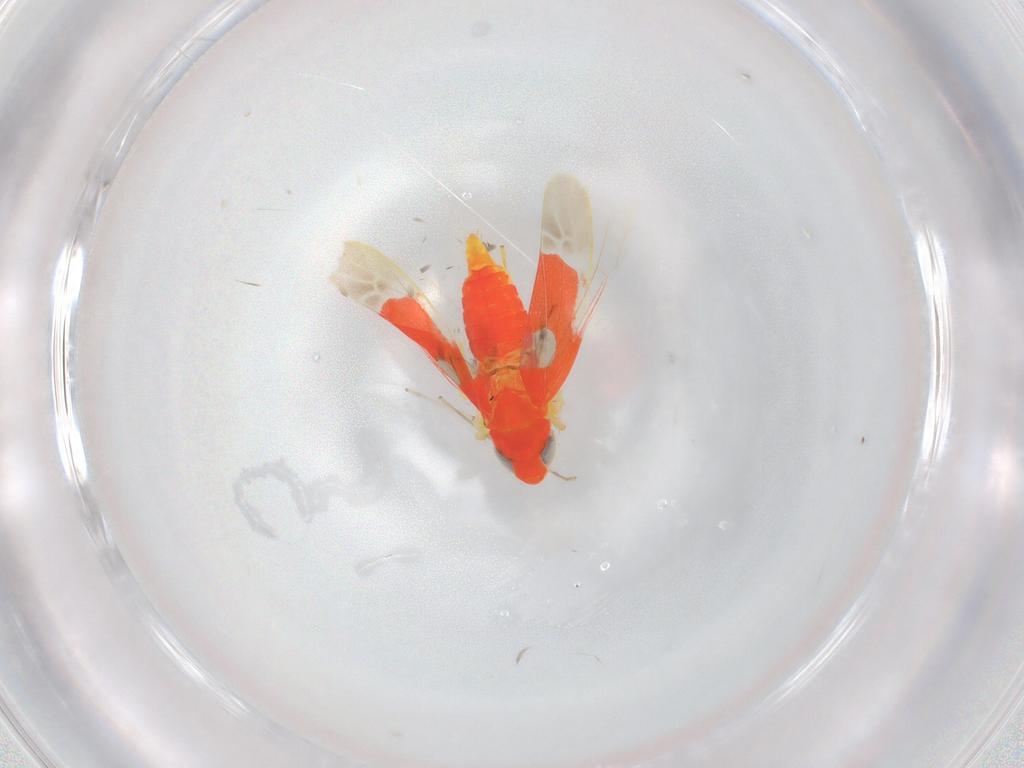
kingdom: Animalia
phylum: Arthropoda
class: Insecta
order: Hemiptera
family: Cicadellidae
